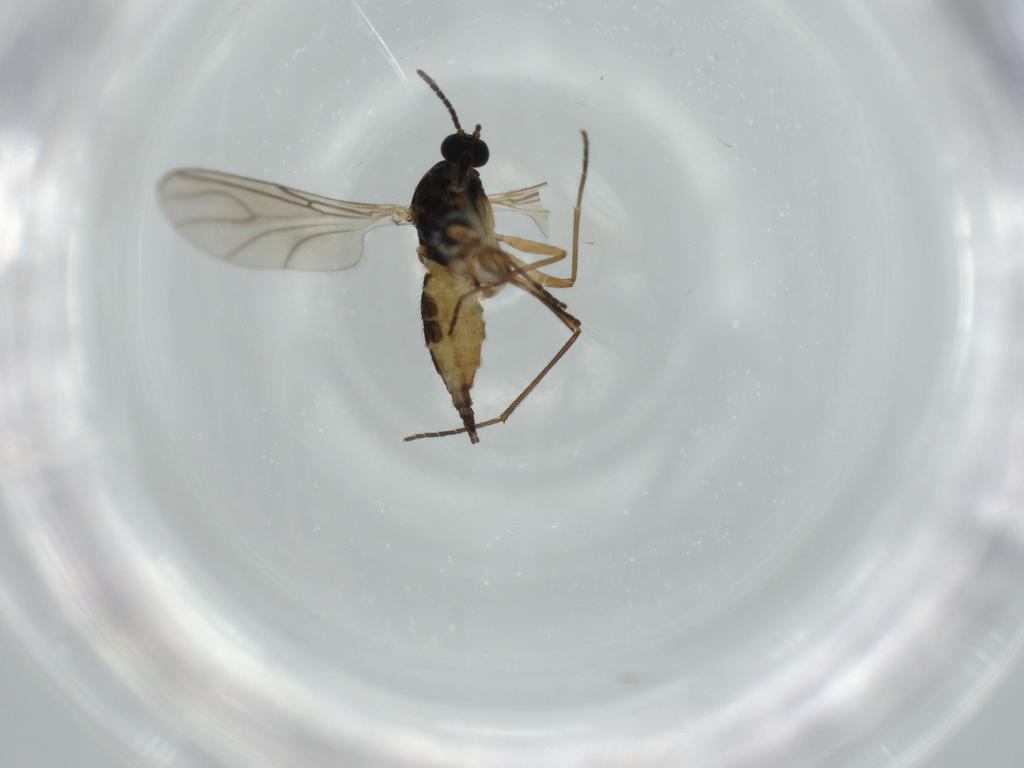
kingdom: Animalia
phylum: Arthropoda
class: Insecta
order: Diptera
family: Sciaridae
